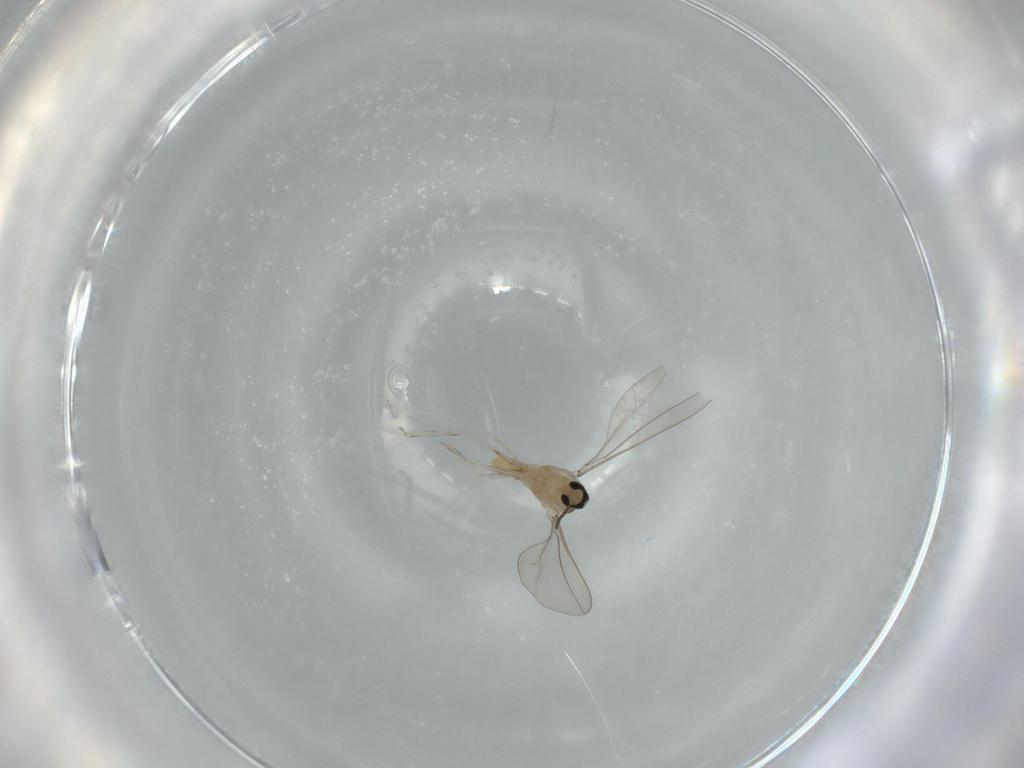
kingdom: Animalia
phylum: Arthropoda
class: Insecta
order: Diptera
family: Cecidomyiidae
